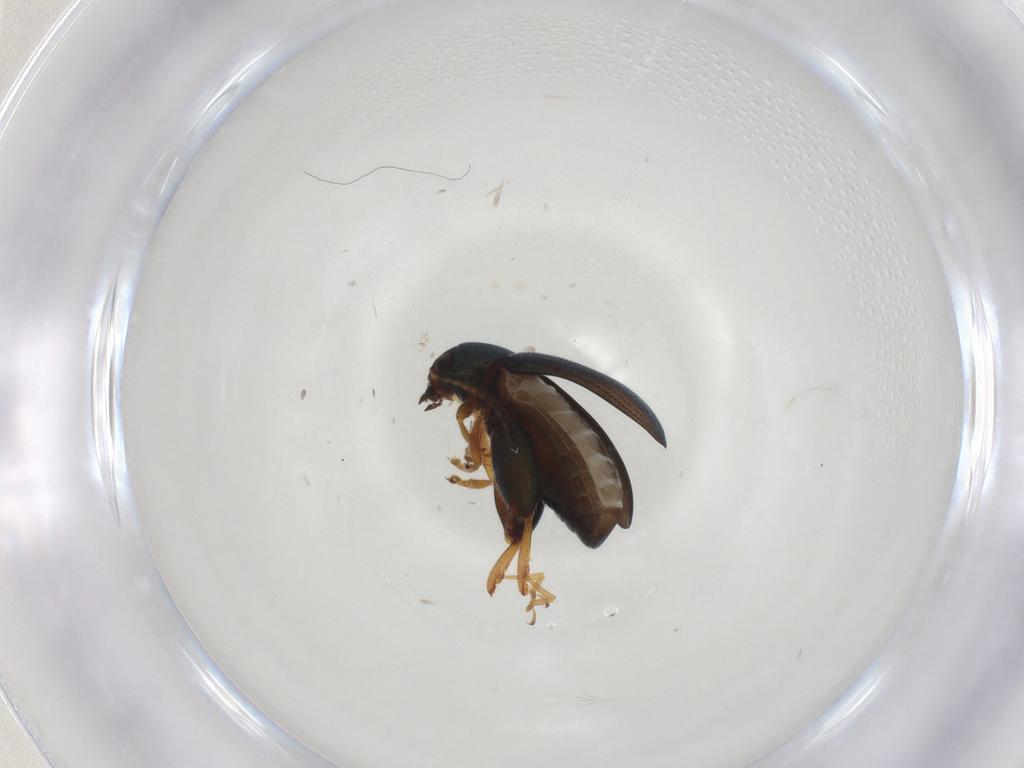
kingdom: Animalia
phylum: Arthropoda
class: Insecta
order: Coleoptera
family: Chrysomelidae
